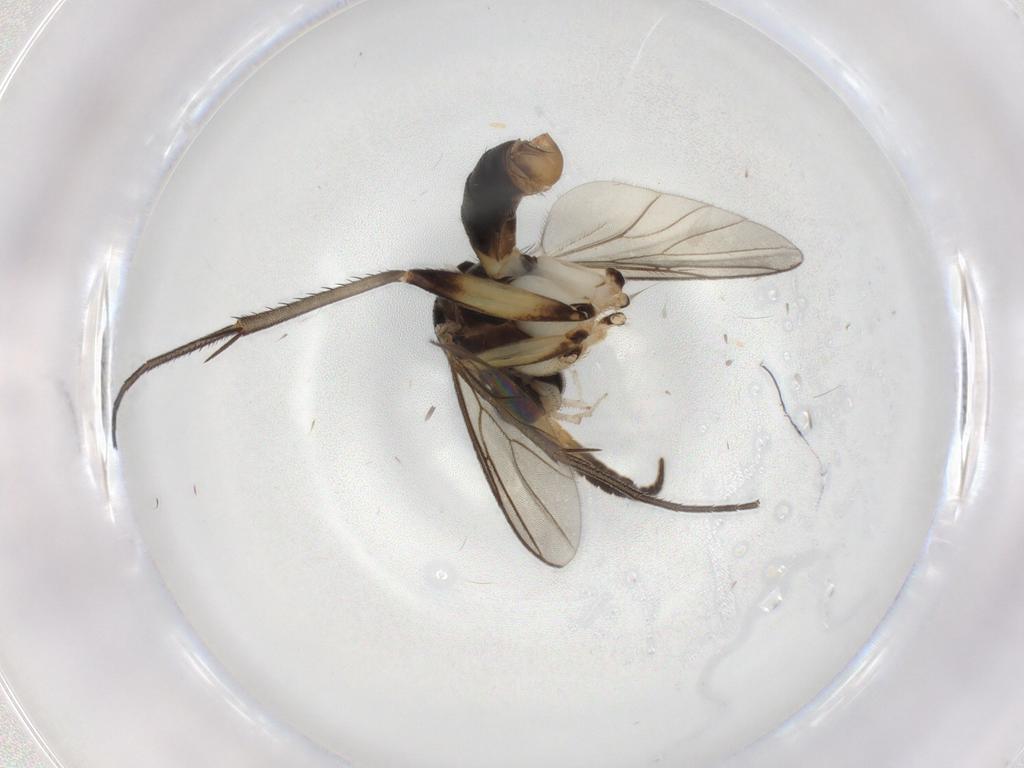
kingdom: Animalia
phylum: Arthropoda
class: Insecta
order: Diptera
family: Mycetophilidae
